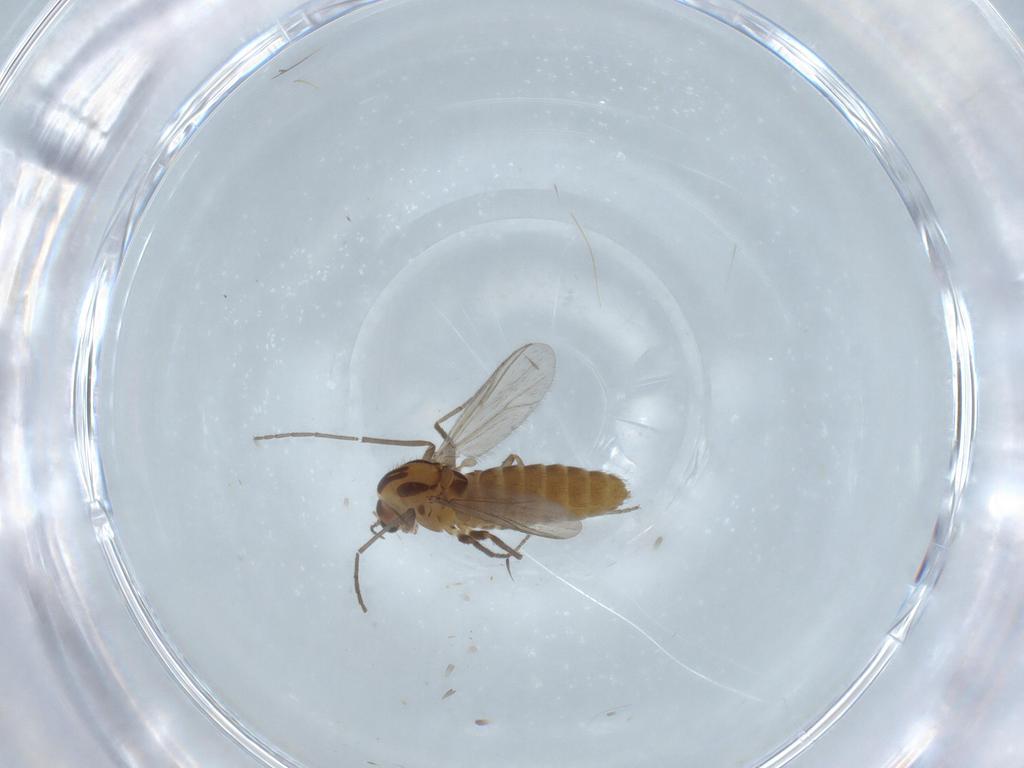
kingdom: Animalia
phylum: Arthropoda
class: Insecta
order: Diptera
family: Chironomidae
